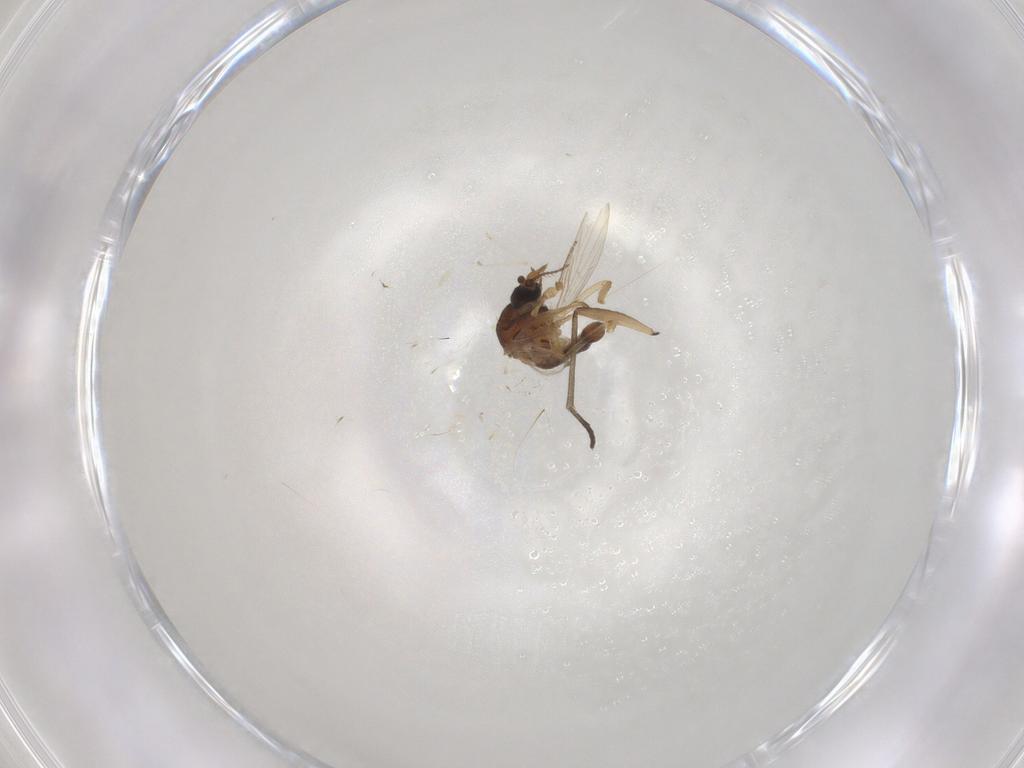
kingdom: Animalia
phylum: Arthropoda
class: Insecta
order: Diptera
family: Ceratopogonidae
